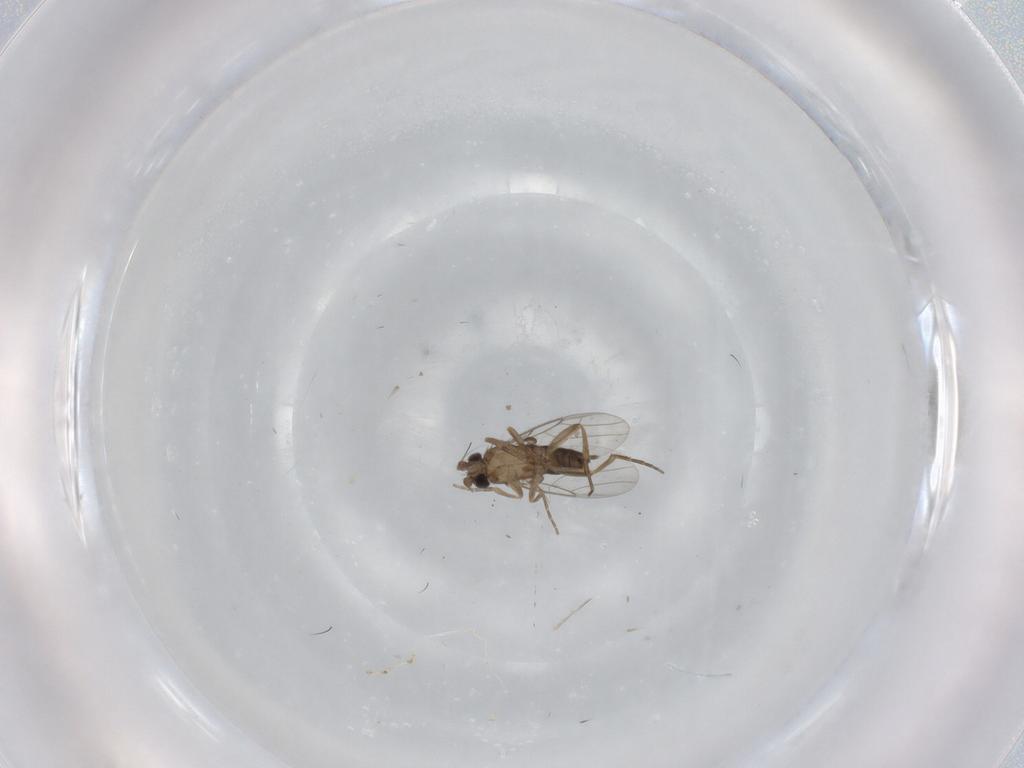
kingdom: Animalia
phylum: Arthropoda
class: Insecta
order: Diptera
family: Phoridae
